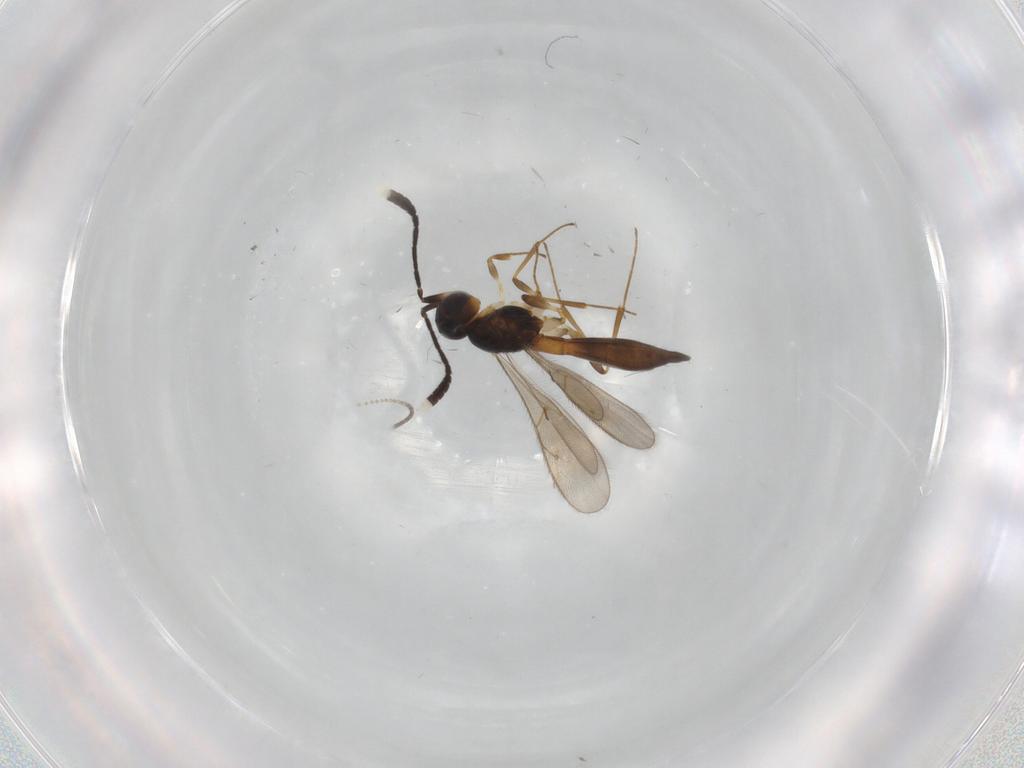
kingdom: Animalia
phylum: Arthropoda
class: Insecta
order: Hymenoptera
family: Scelionidae
